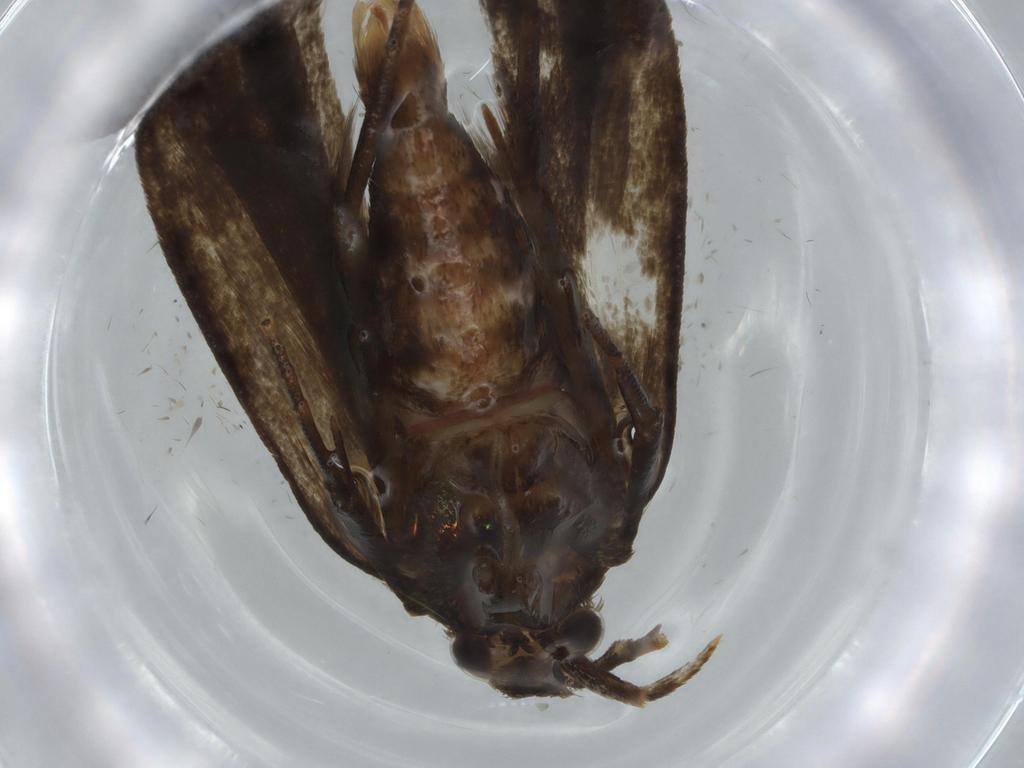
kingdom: Animalia
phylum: Arthropoda
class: Insecta
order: Lepidoptera
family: Autostichidae
